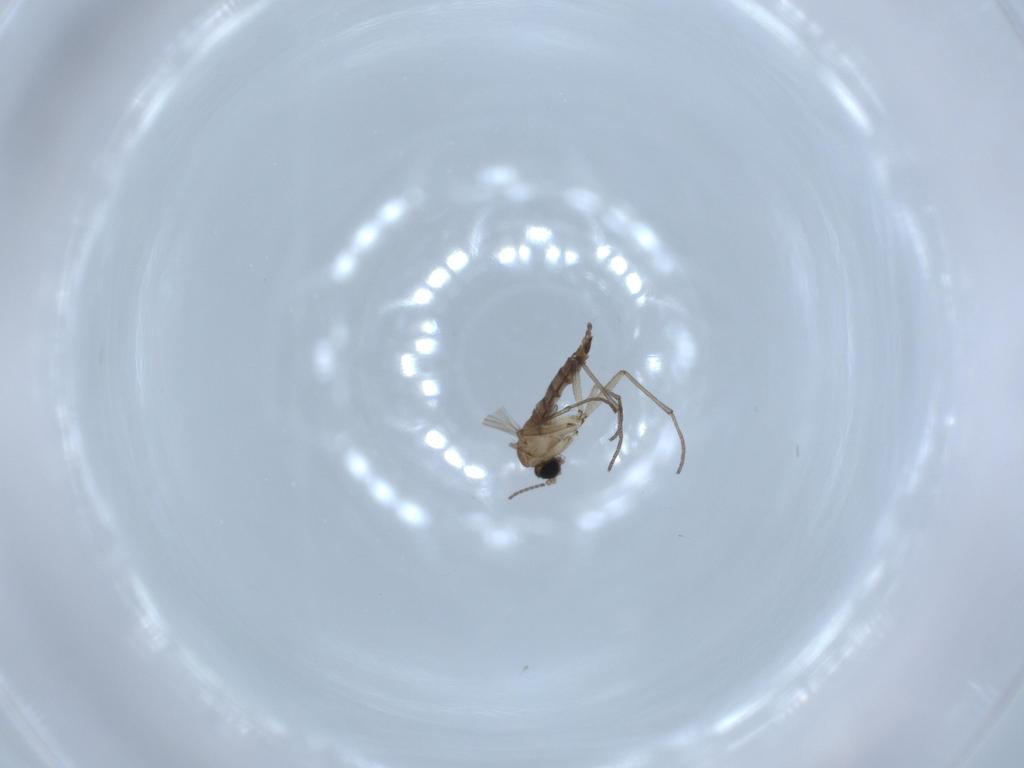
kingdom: Animalia
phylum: Arthropoda
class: Insecta
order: Diptera
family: Sciaridae
